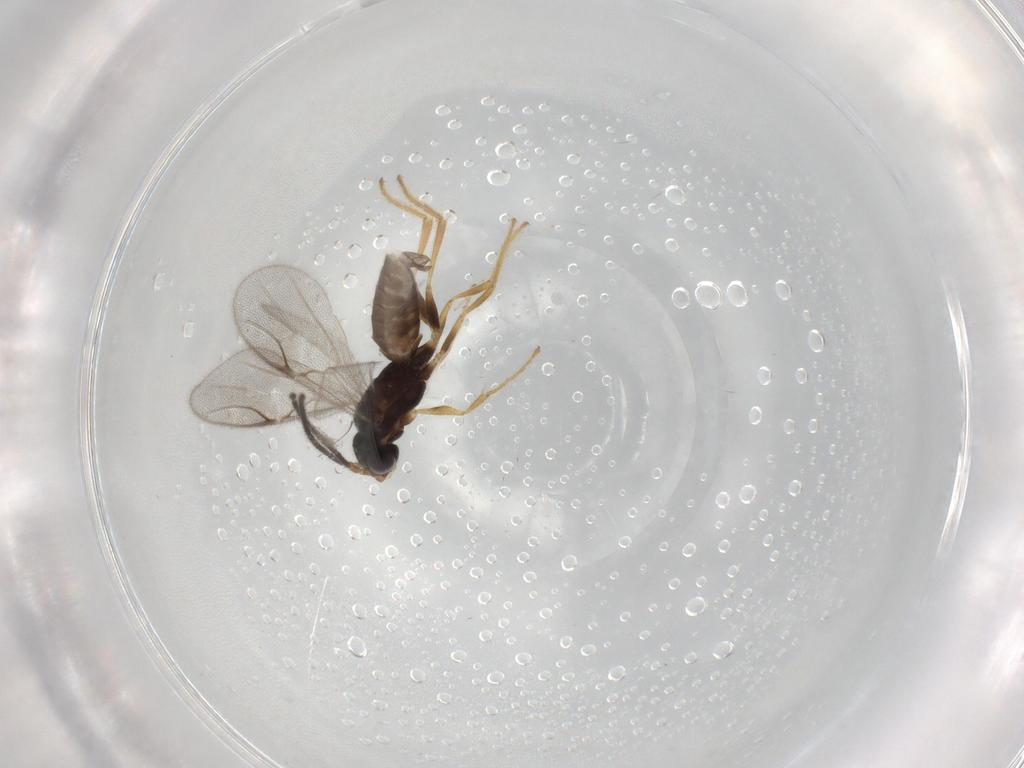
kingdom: Animalia
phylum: Arthropoda
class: Insecta
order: Hymenoptera
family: Dryinidae
